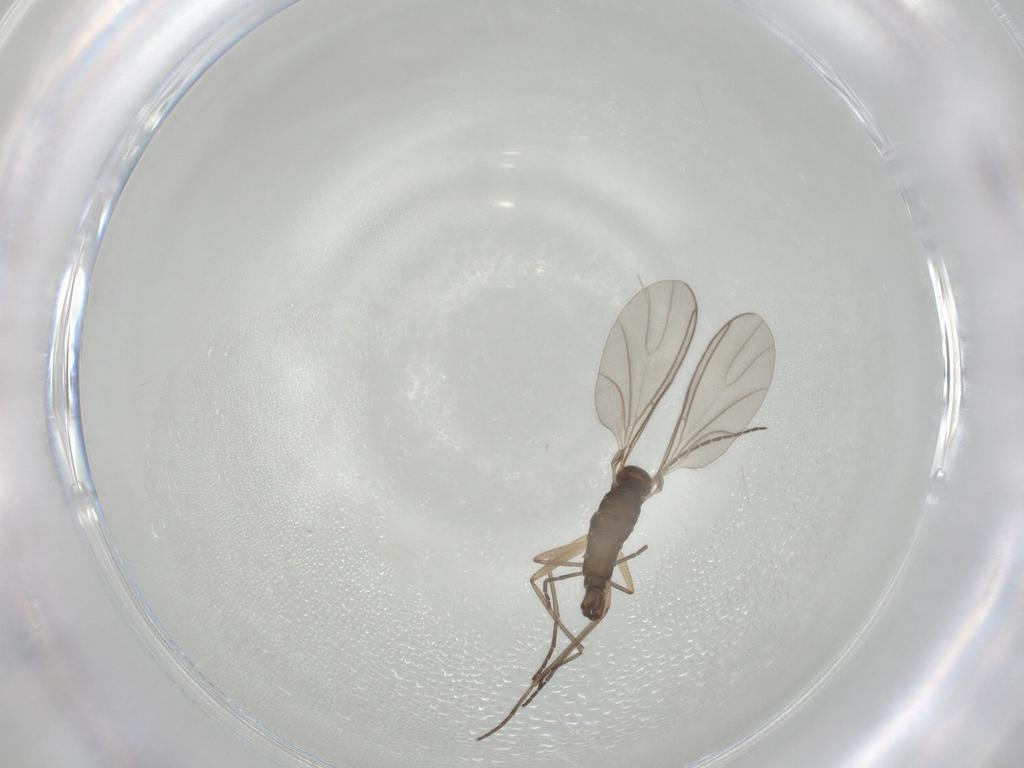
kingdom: Animalia
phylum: Arthropoda
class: Insecta
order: Diptera
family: Sciaridae
